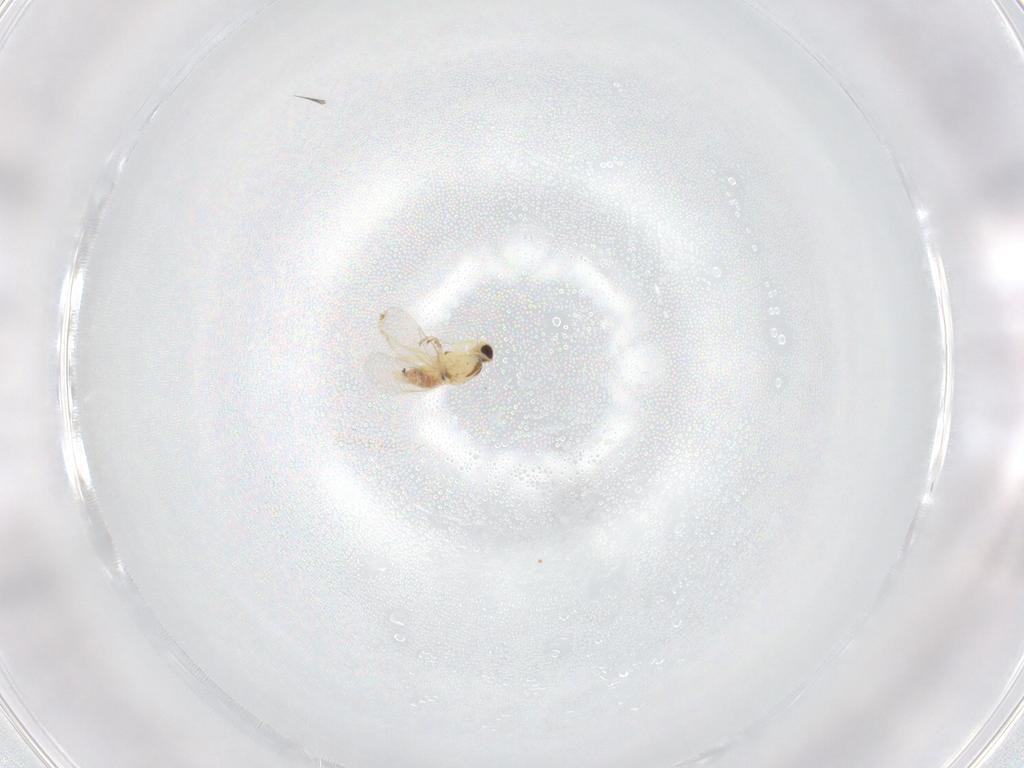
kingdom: Animalia
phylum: Arthropoda
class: Insecta
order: Diptera
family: Agromyzidae
